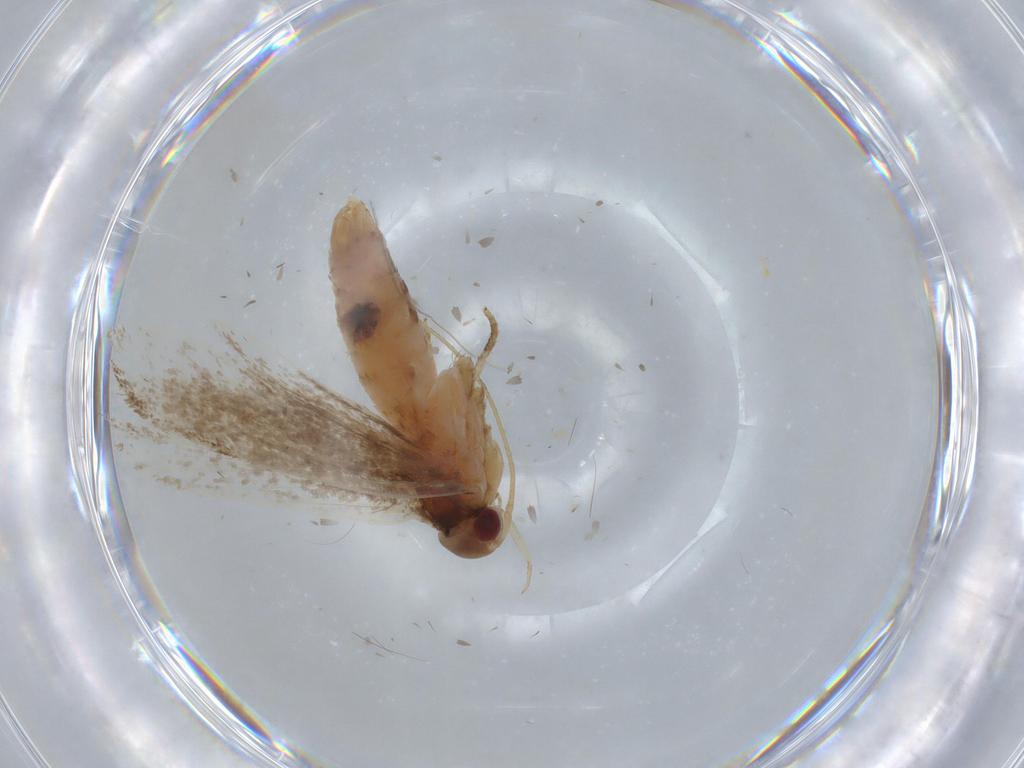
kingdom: Animalia
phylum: Arthropoda
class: Insecta
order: Lepidoptera
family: Gelechiidae
